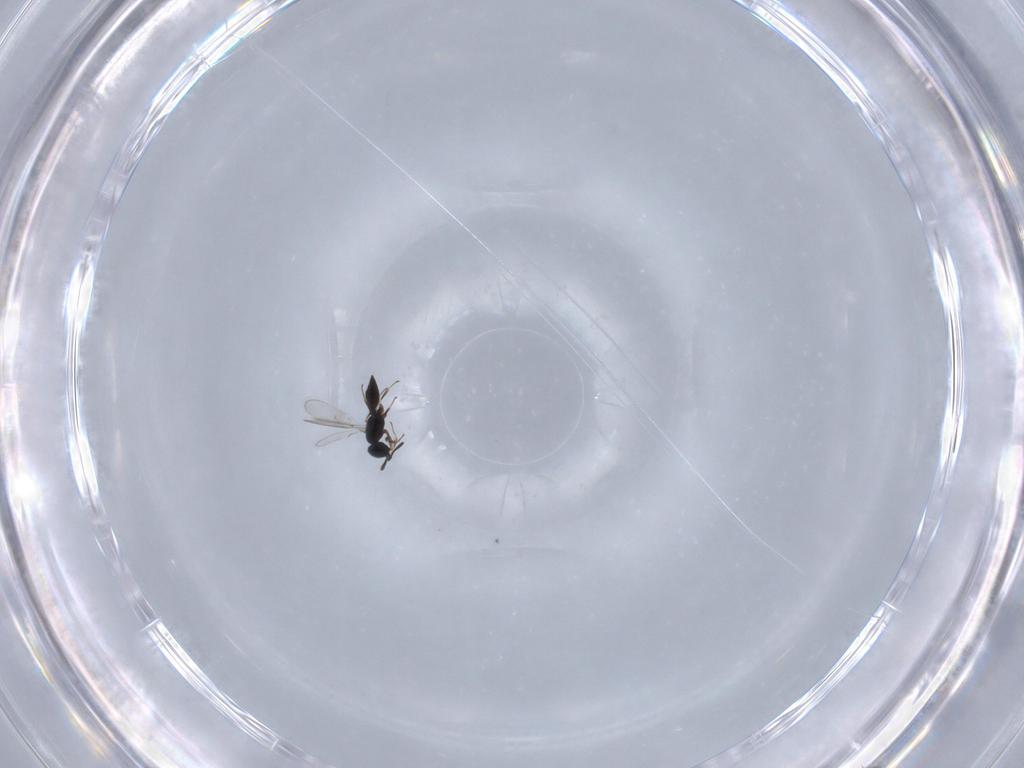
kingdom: Animalia
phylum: Arthropoda
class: Insecta
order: Hymenoptera
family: Scelionidae
